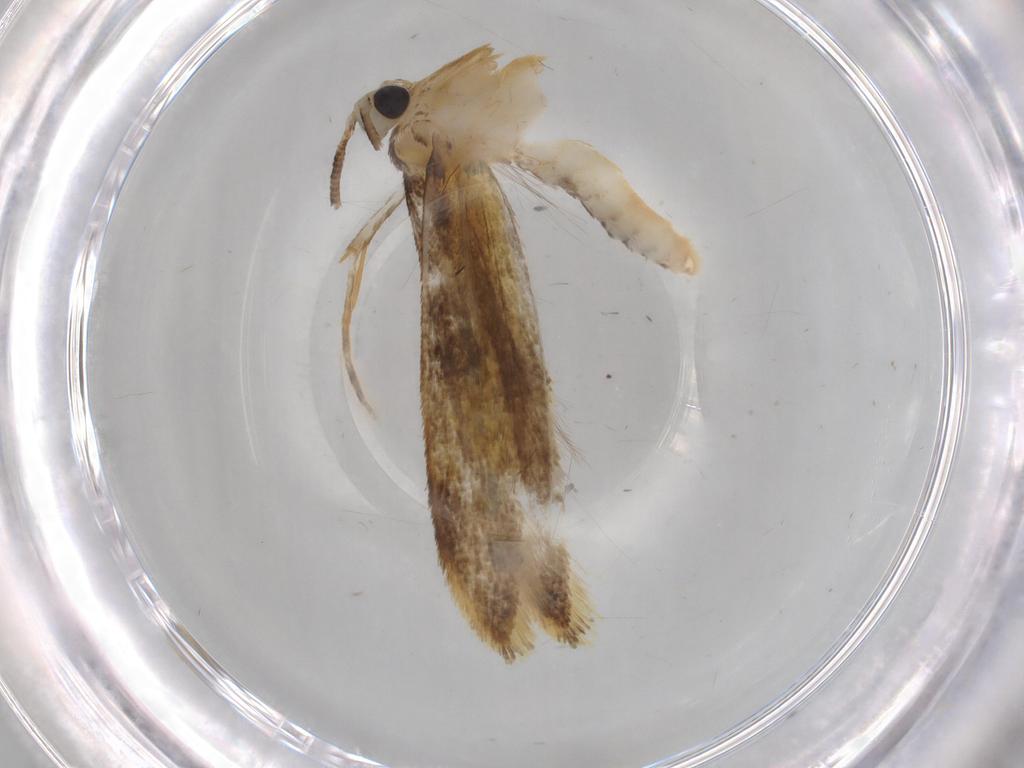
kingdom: Animalia
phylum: Arthropoda
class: Insecta
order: Lepidoptera
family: Tineidae
